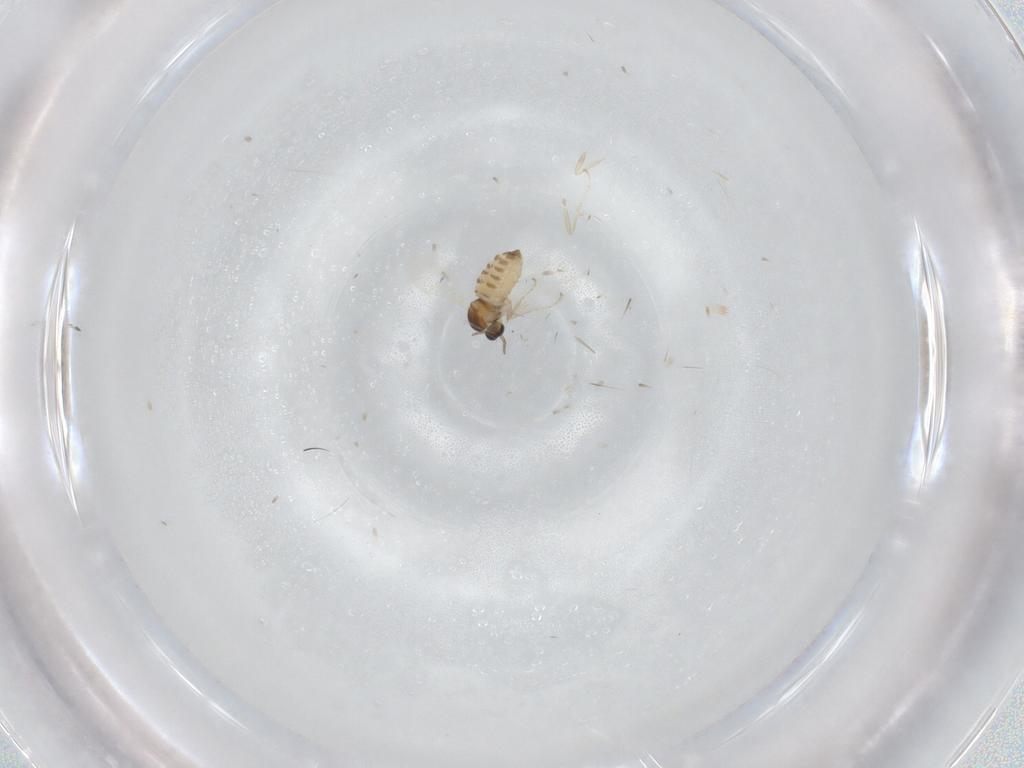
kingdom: Animalia
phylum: Arthropoda
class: Insecta
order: Diptera
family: Cecidomyiidae
